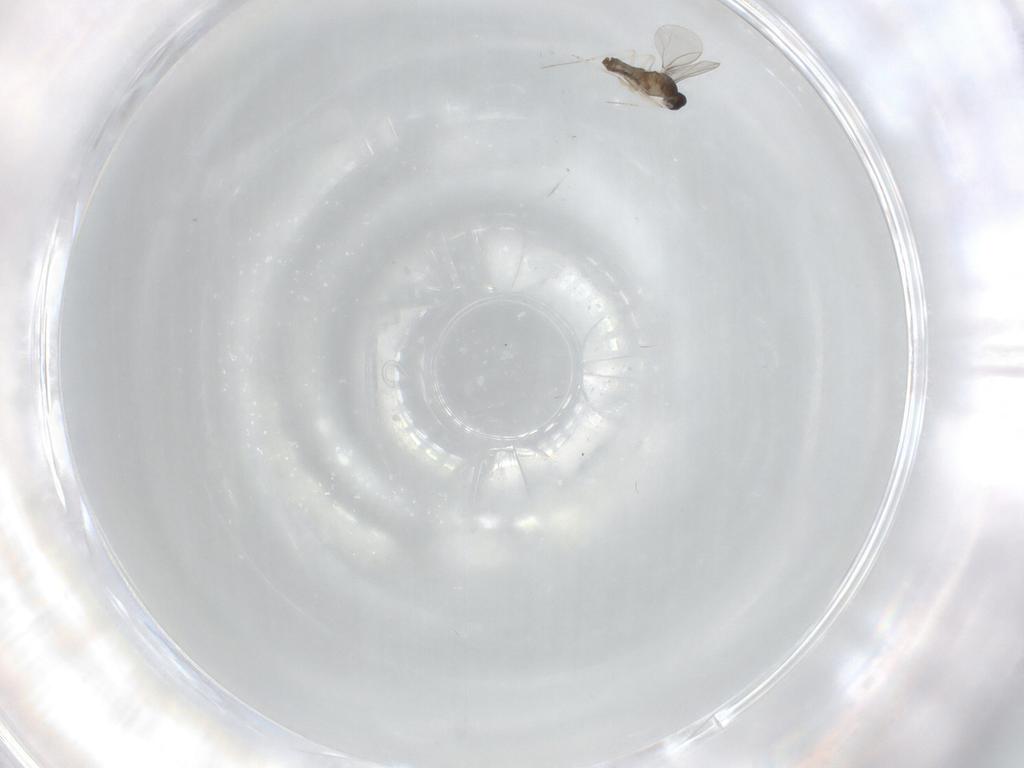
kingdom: Animalia
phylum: Arthropoda
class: Insecta
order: Diptera
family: Cecidomyiidae
